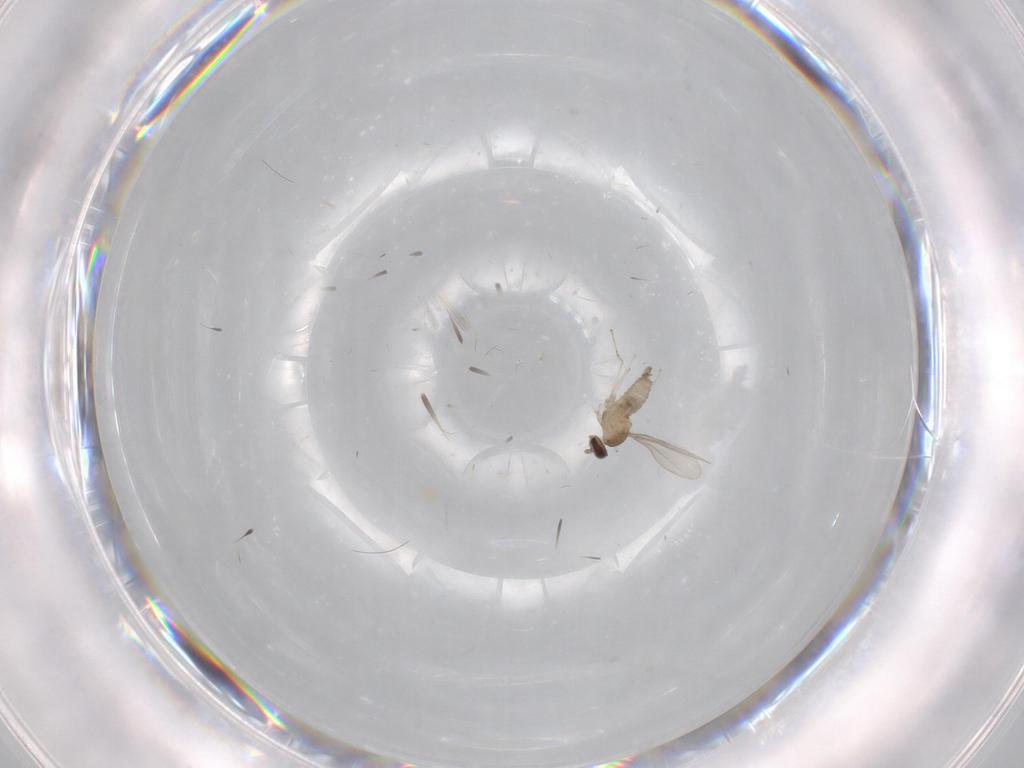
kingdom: Animalia
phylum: Arthropoda
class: Insecta
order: Diptera
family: Cecidomyiidae
